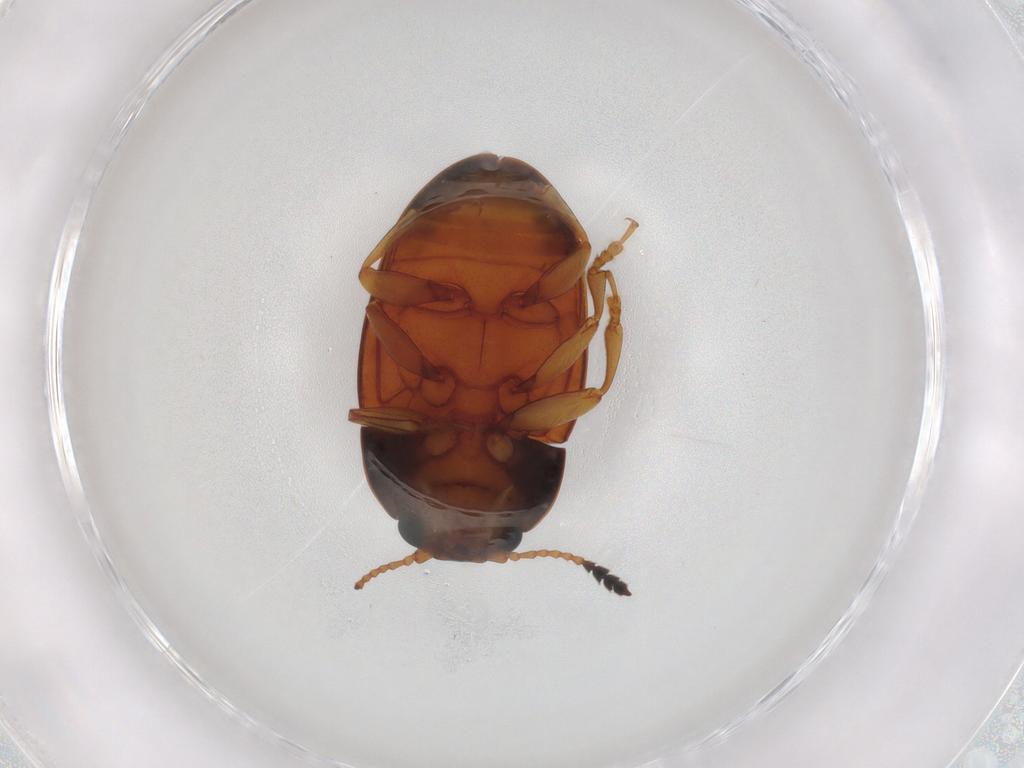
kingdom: Animalia
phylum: Arthropoda
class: Insecta
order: Coleoptera
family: Erotylidae
